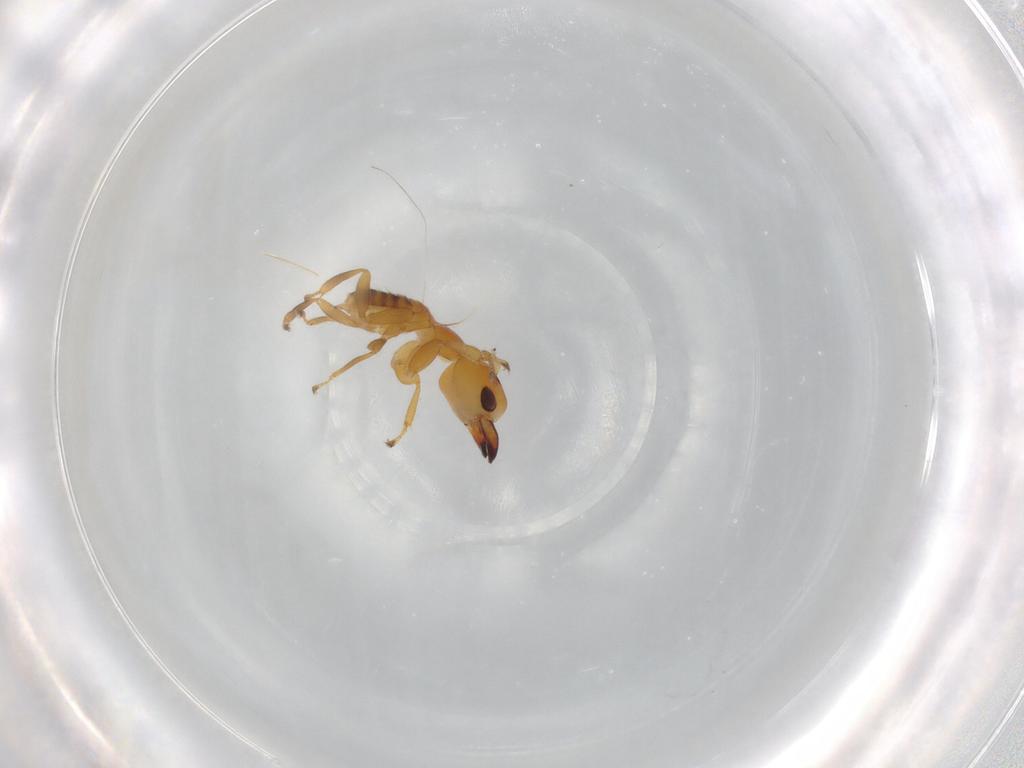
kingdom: Animalia
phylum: Arthropoda
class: Insecta
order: Hymenoptera
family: Pteromalidae
